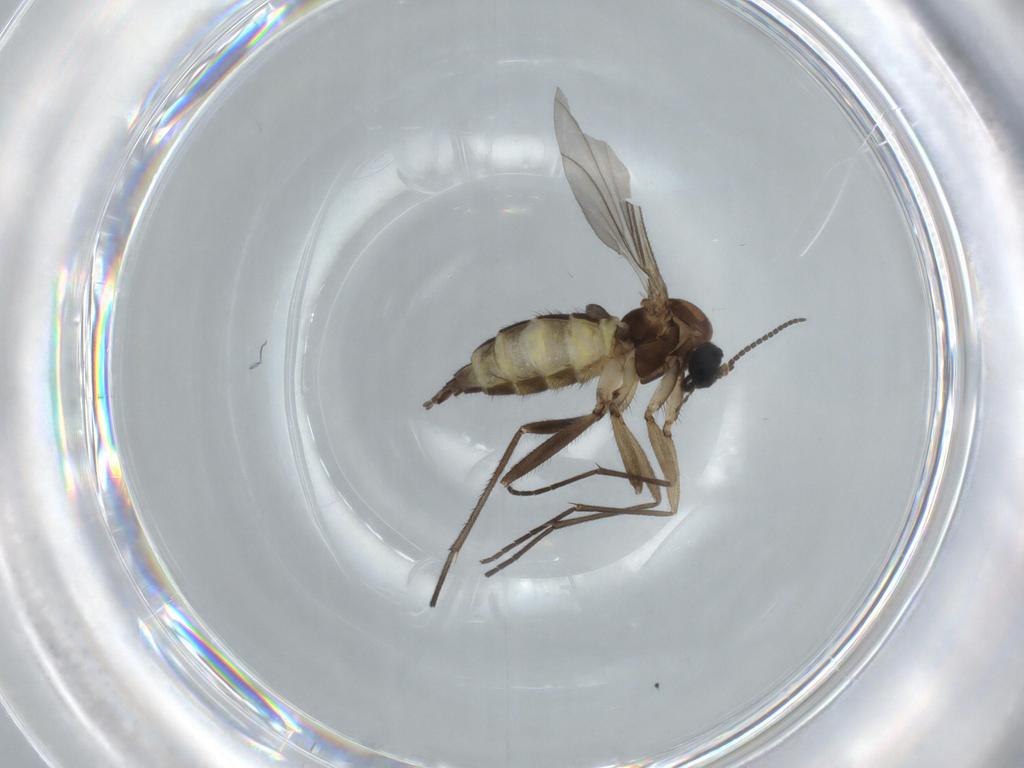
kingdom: Animalia
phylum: Arthropoda
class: Insecta
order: Diptera
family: Sciaridae
